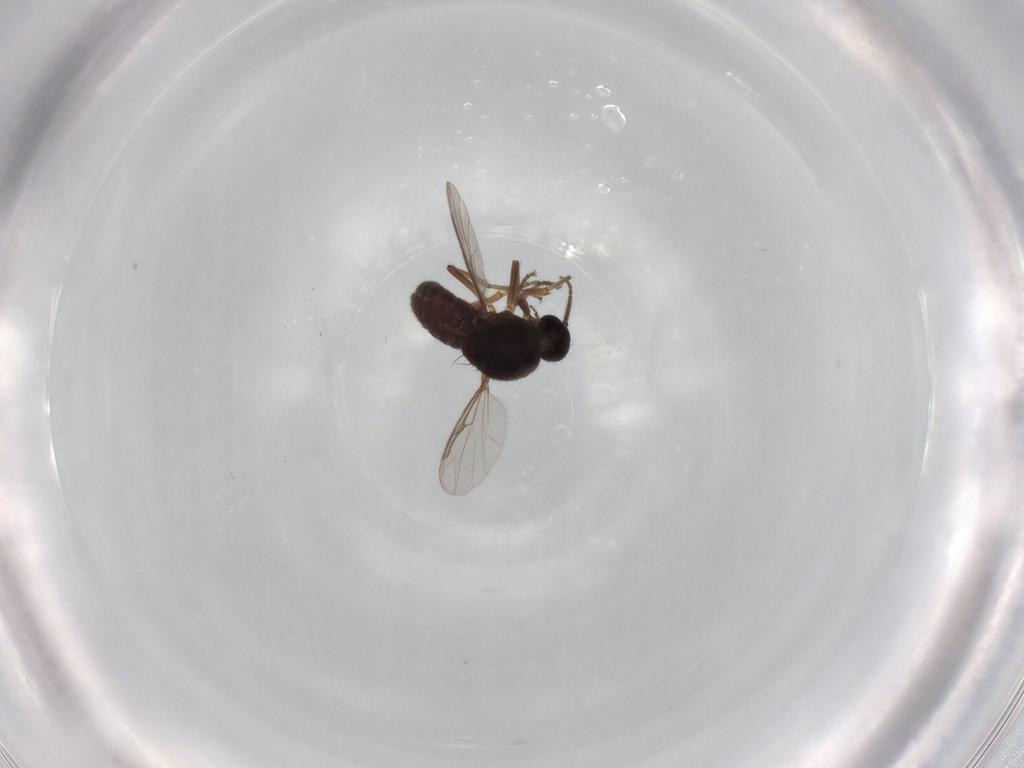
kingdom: Animalia
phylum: Arthropoda
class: Insecta
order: Diptera
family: Ceratopogonidae
